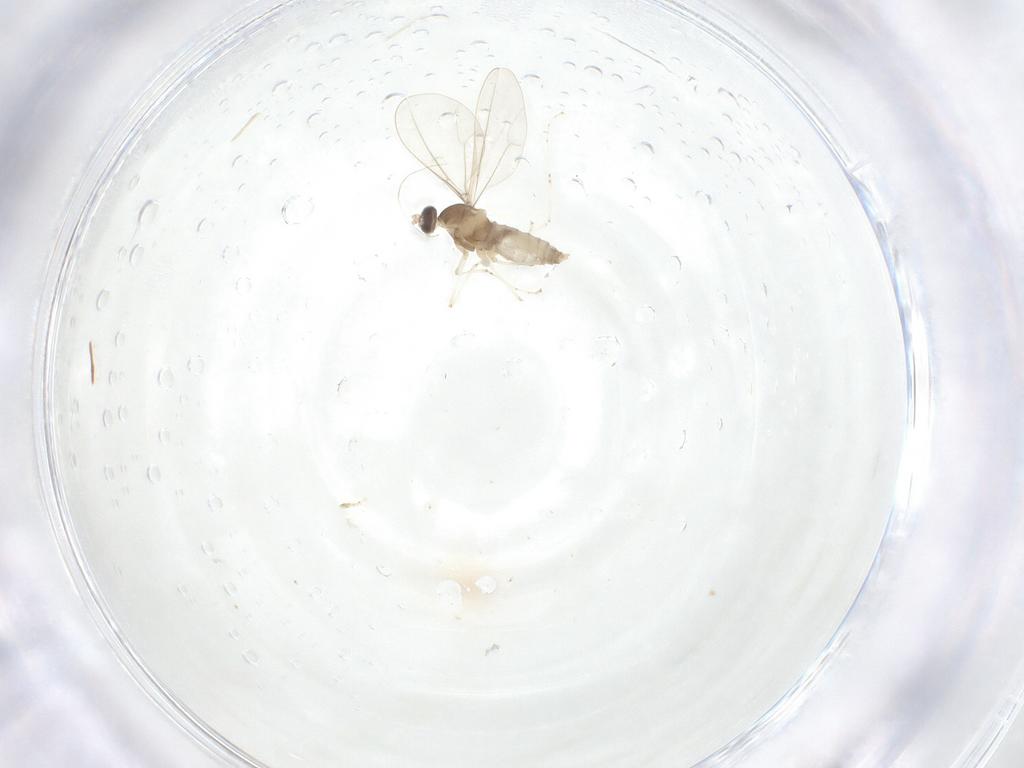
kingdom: Animalia
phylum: Arthropoda
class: Insecta
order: Diptera
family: Cecidomyiidae
